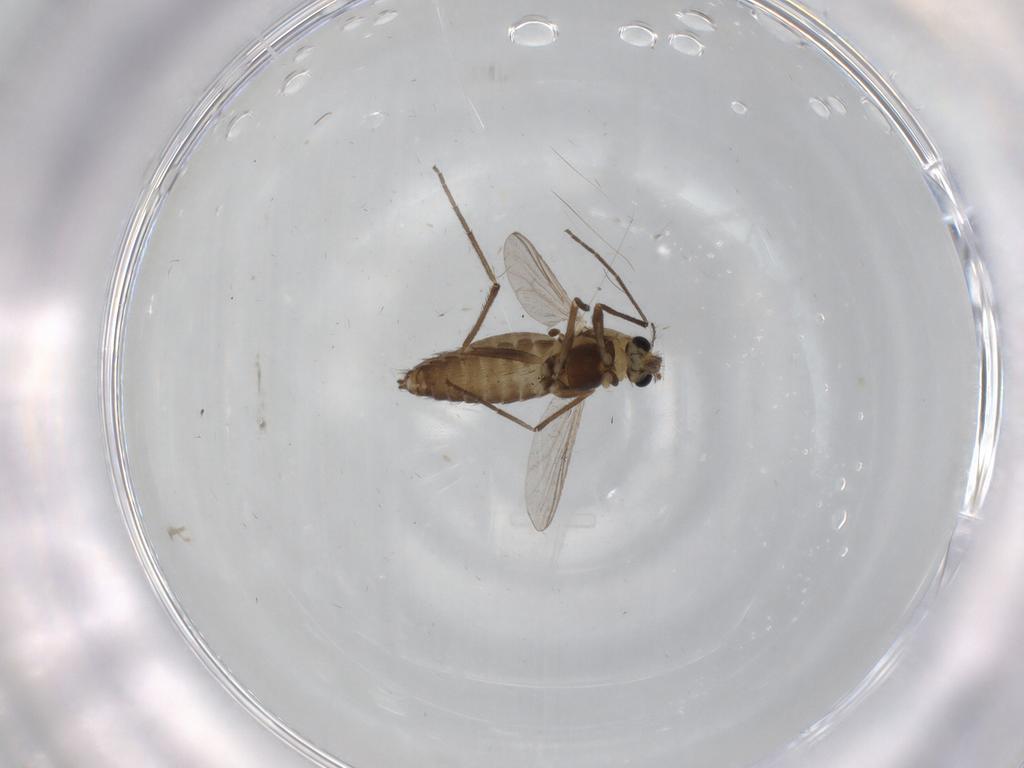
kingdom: Animalia
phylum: Arthropoda
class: Insecta
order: Diptera
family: Chironomidae
